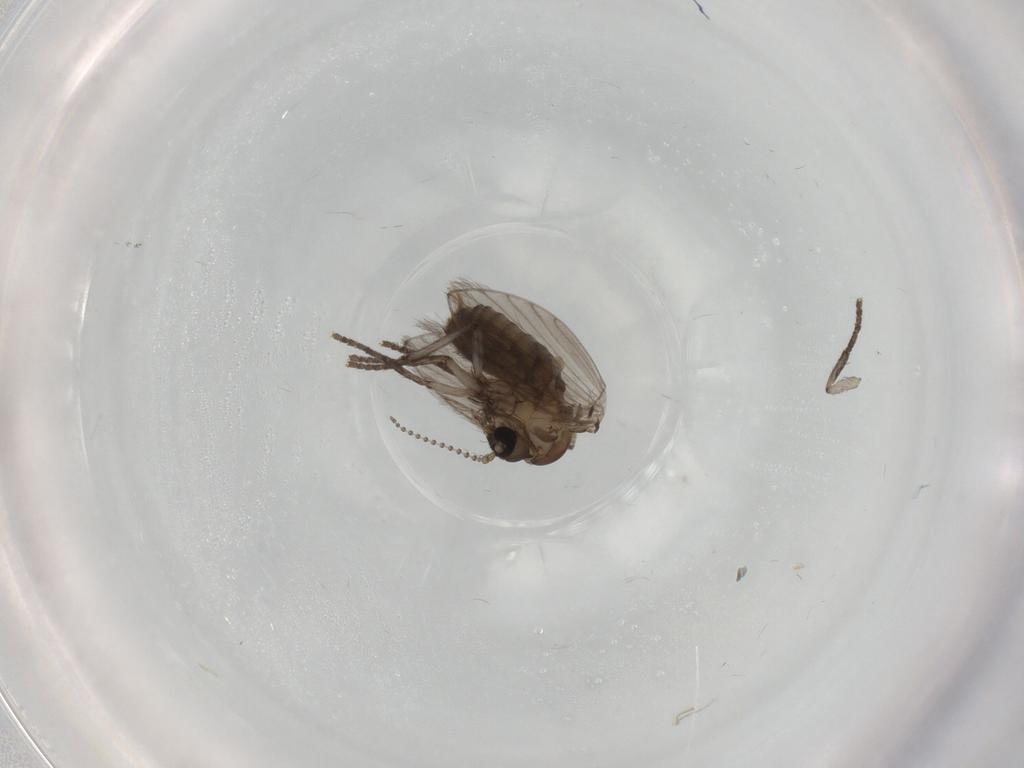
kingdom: Animalia
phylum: Arthropoda
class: Insecta
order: Diptera
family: Psychodidae
